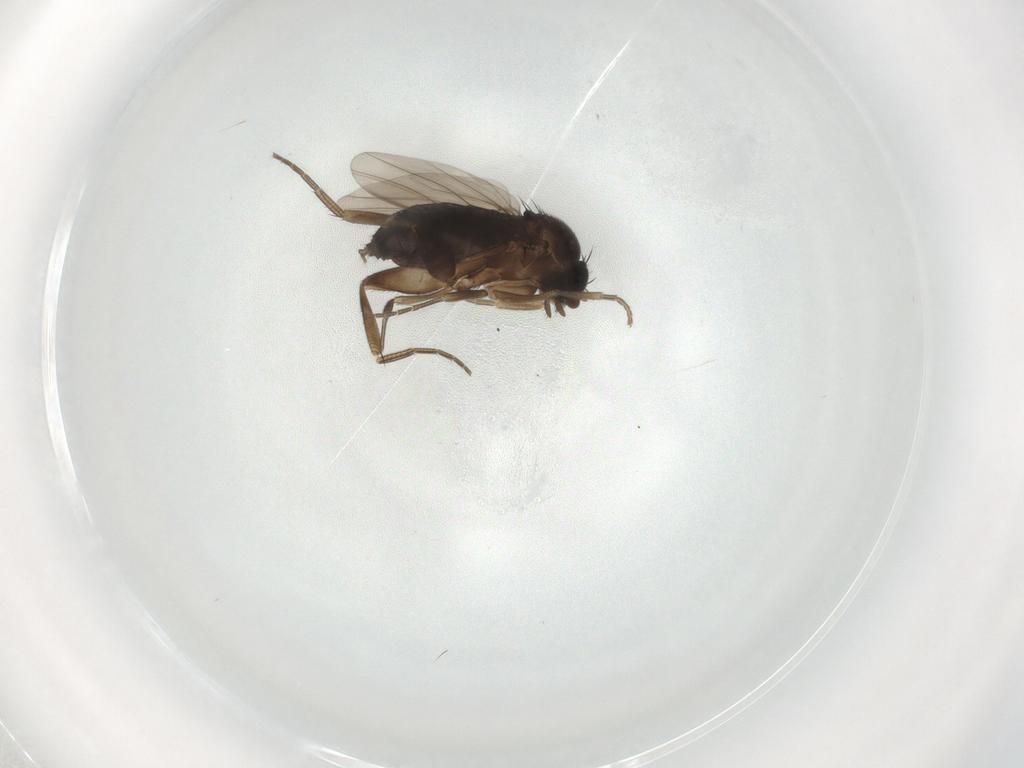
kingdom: Animalia
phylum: Arthropoda
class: Insecta
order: Diptera
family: Phoridae
